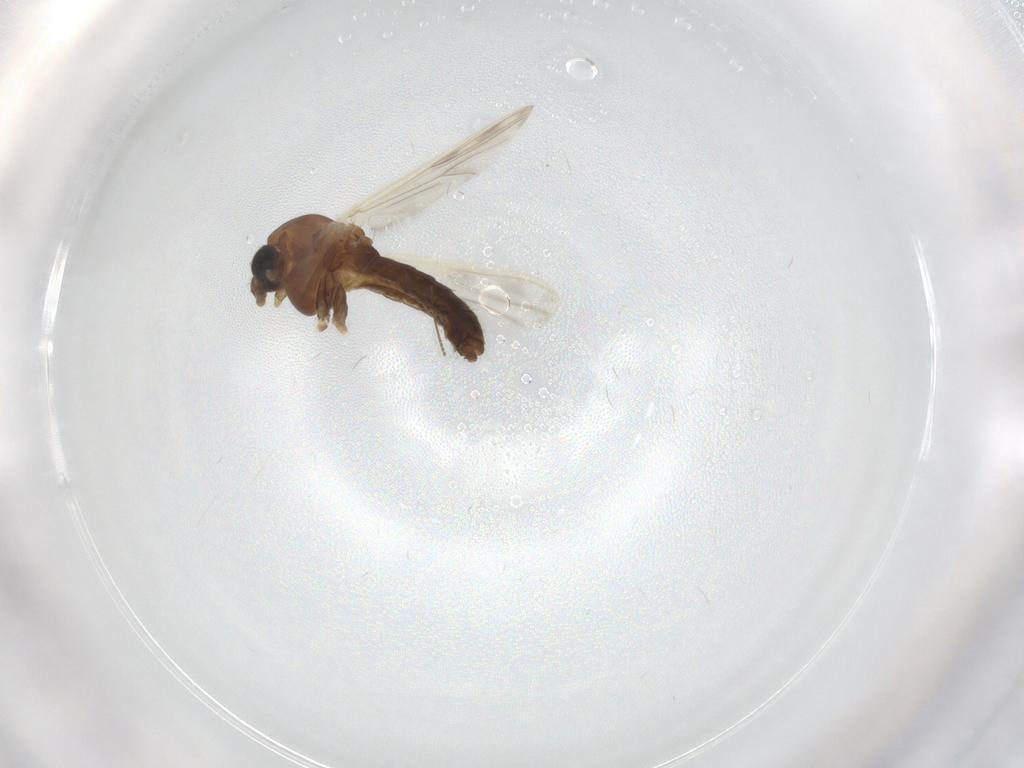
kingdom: Animalia
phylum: Arthropoda
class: Insecta
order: Diptera
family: Chironomidae
